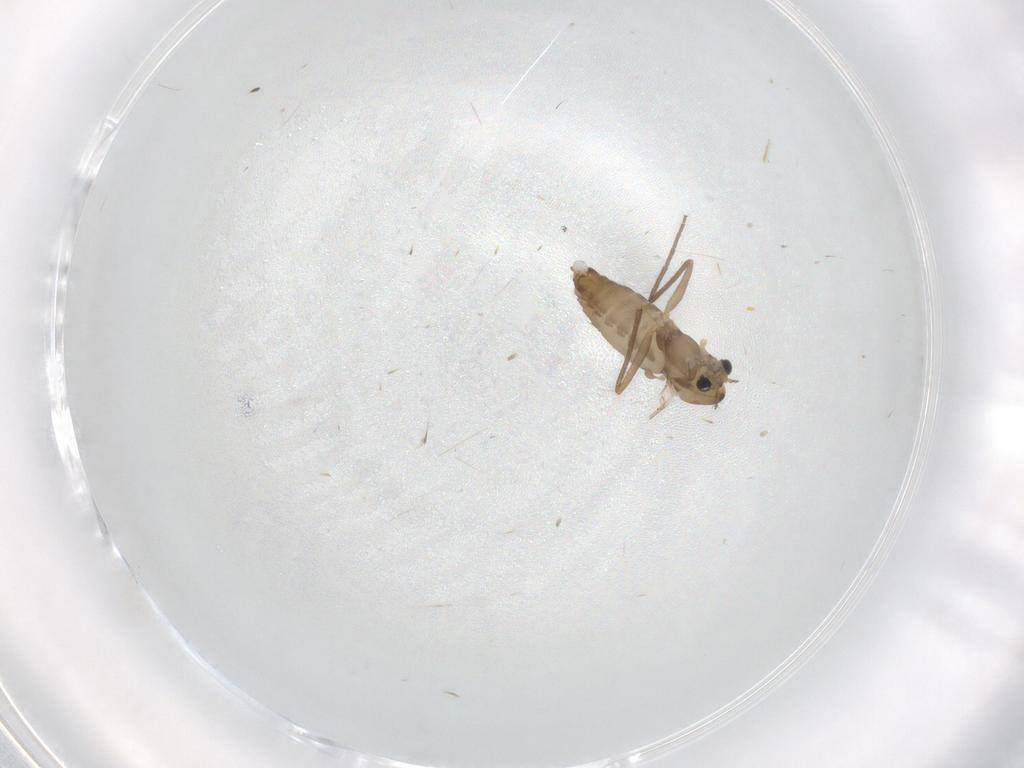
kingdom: Animalia
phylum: Arthropoda
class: Insecta
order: Diptera
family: Chironomidae
